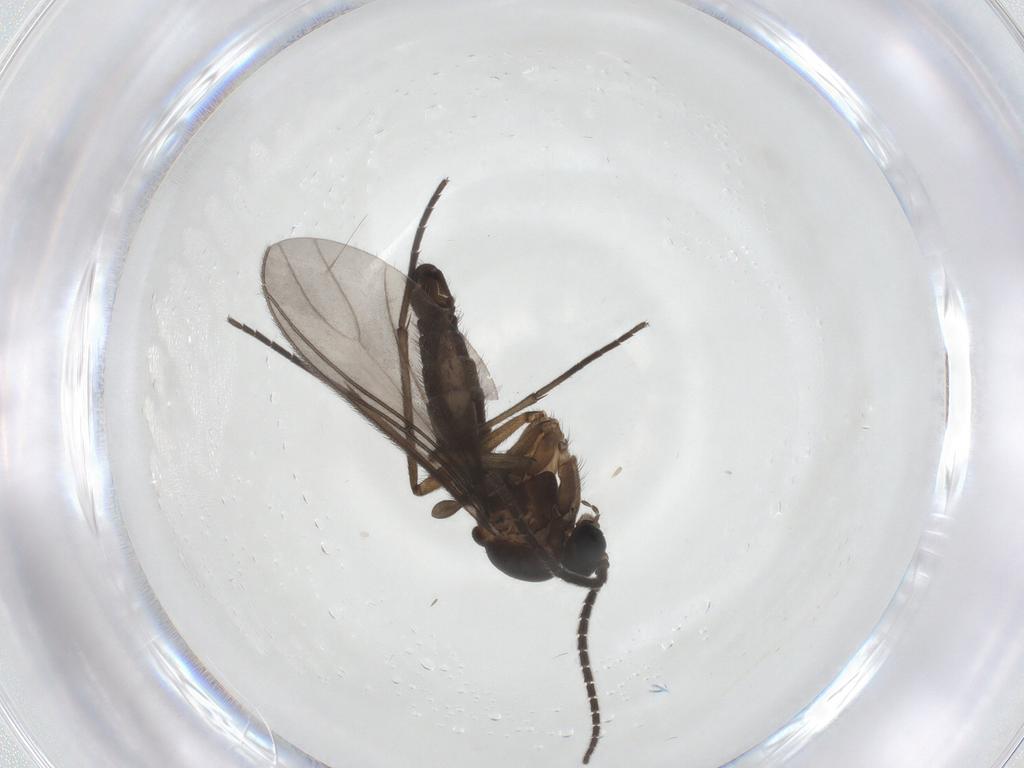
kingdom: Animalia
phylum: Arthropoda
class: Insecta
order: Diptera
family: Sciaridae
